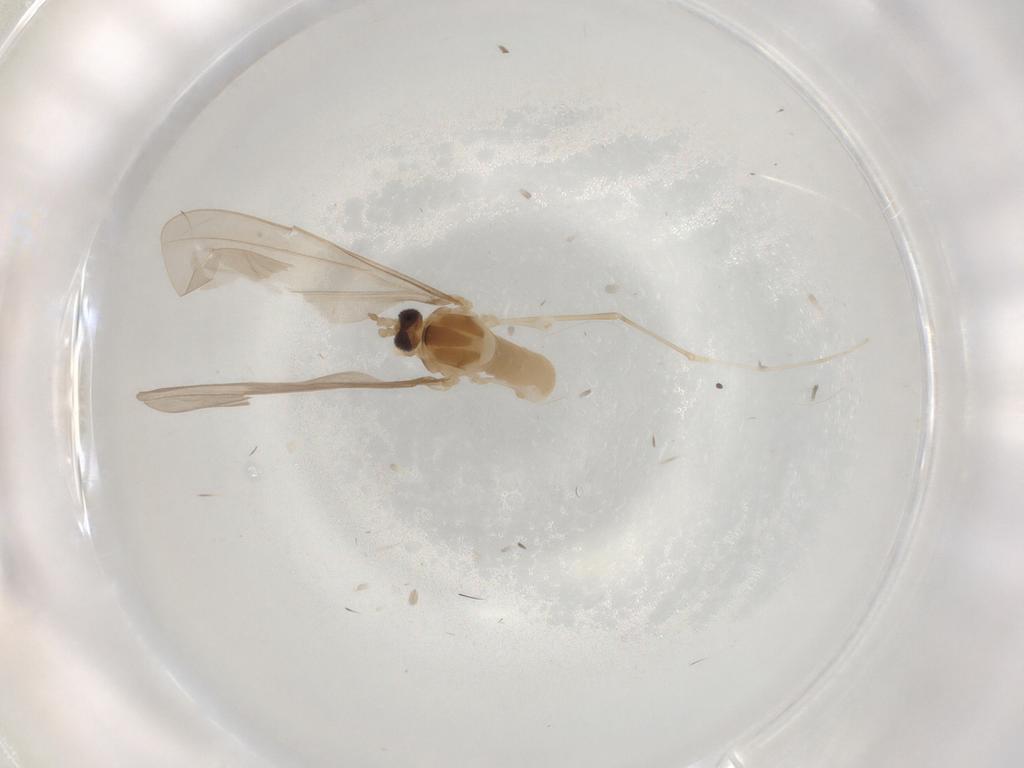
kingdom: Animalia
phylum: Arthropoda
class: Insecta
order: Diptera
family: Cecidomyiidae
